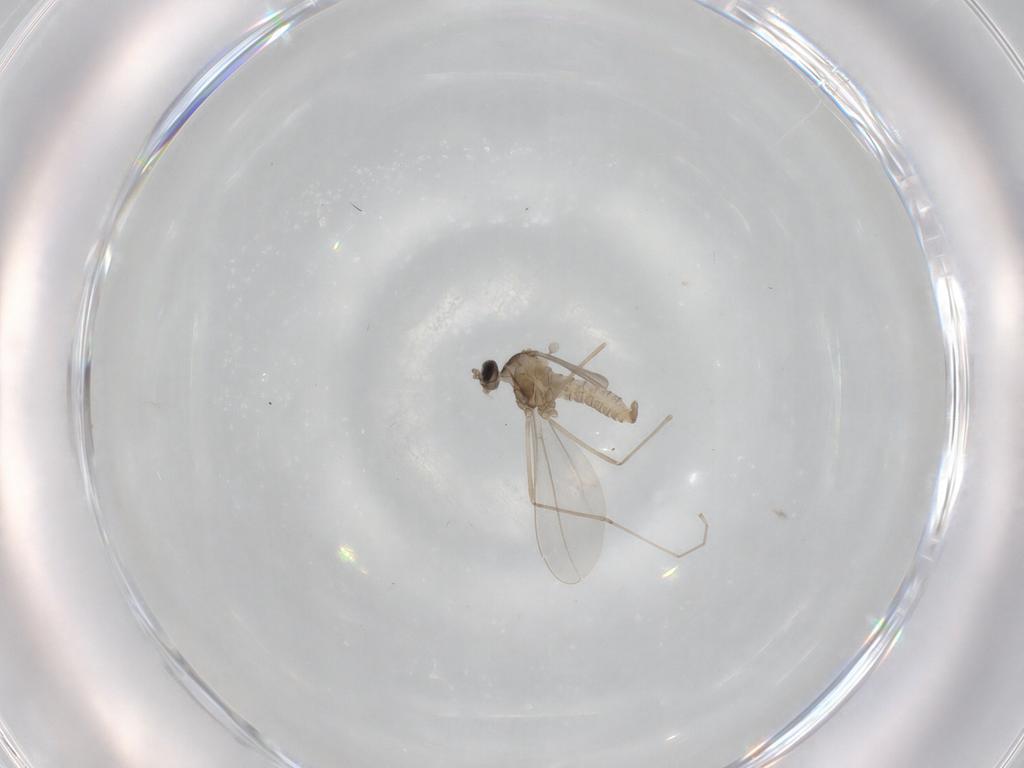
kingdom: Animalia
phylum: Arthropoda
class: Insecta
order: Diptera
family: Cecidomyiidae
